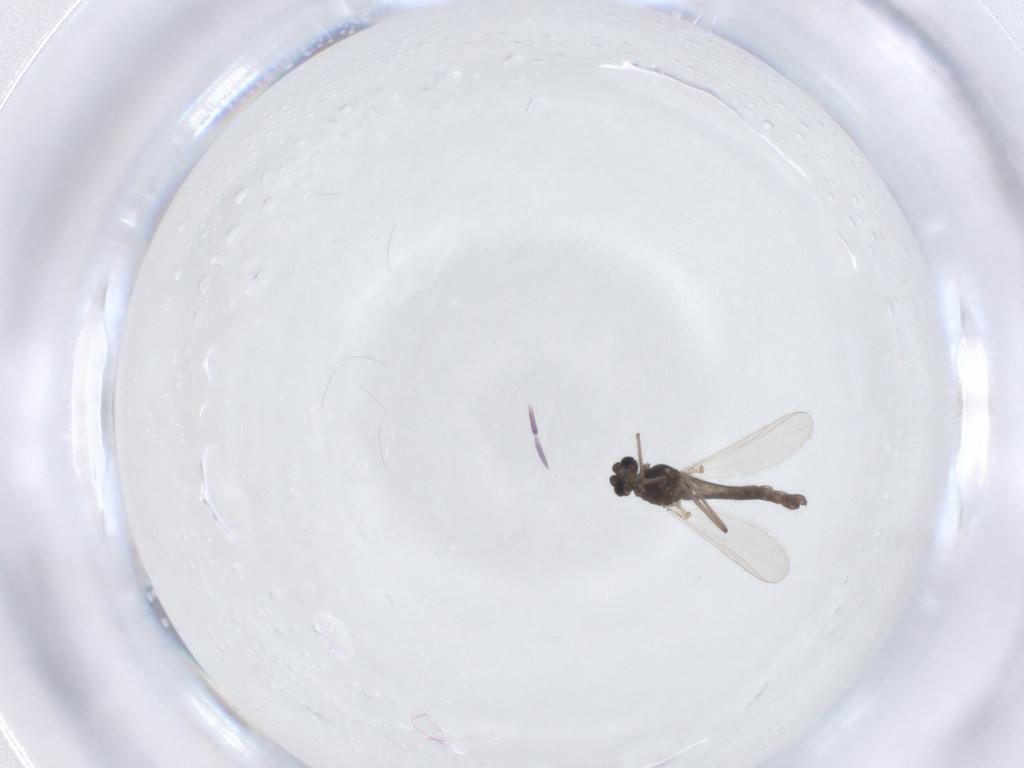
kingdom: Animalia
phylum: Arthropoda
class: Insecta
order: Diptera
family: Chironomidae
